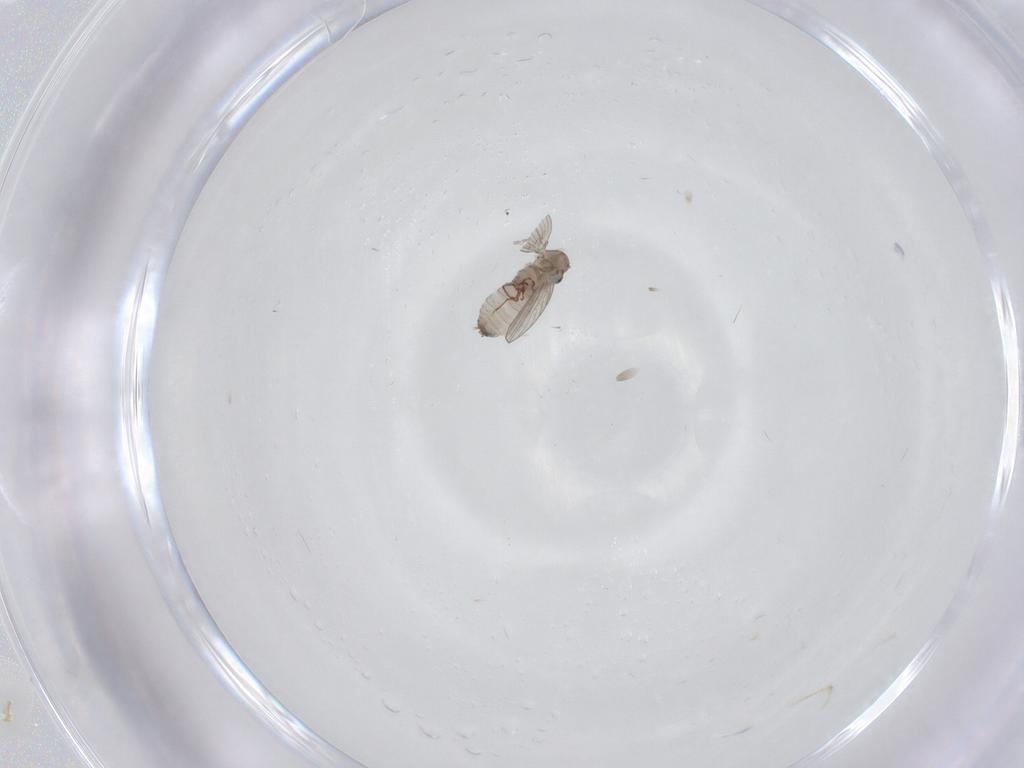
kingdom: Animalia
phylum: Arthropoda
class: Insecta
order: Diptera
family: Psychodidae
